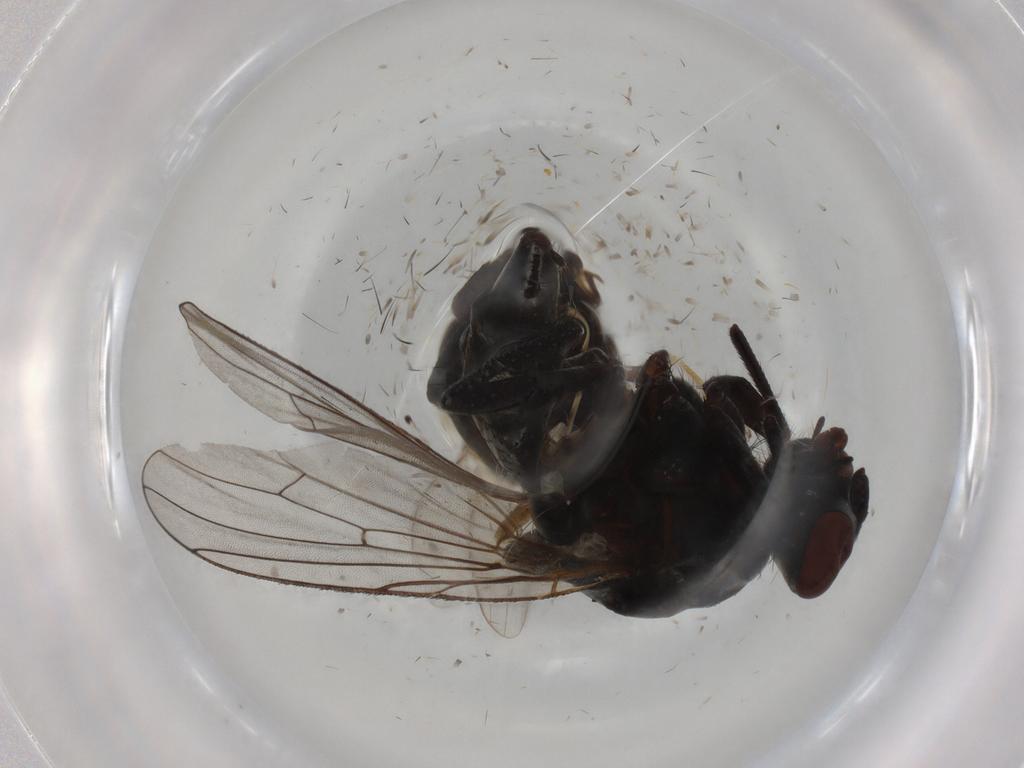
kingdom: Animalia
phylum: Arthropoda
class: Insecta
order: Diptera
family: Milichiidae
